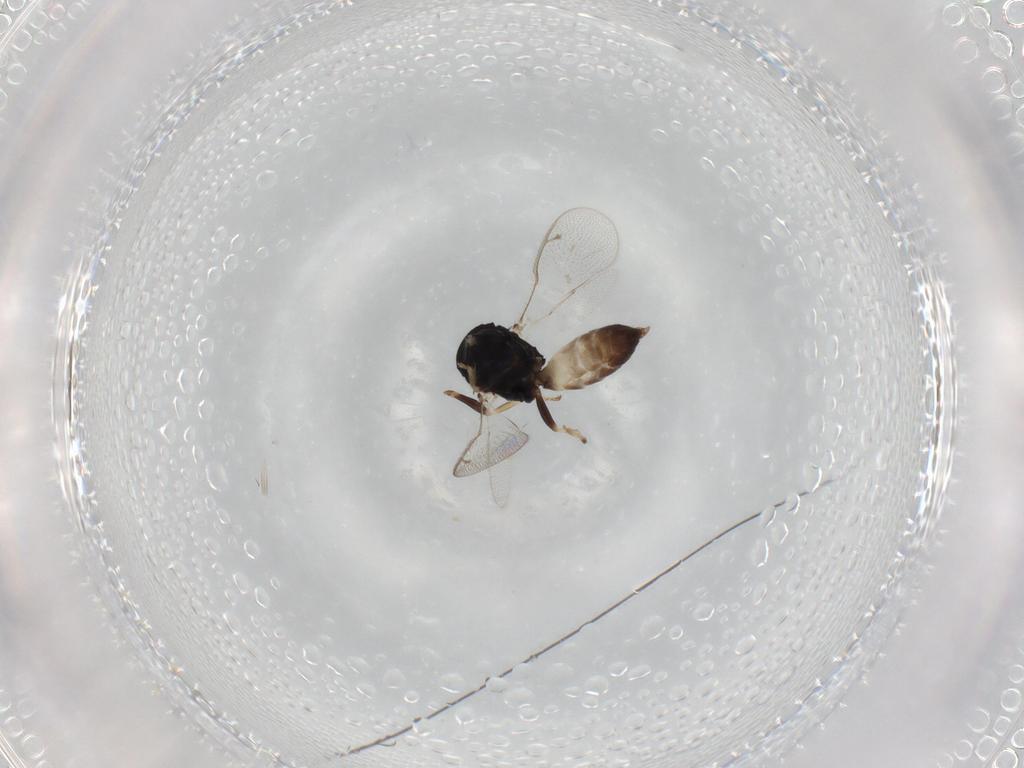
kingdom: Animalia
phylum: Arthropoda
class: Insecta
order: Hymenoptera
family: Pteromalidae
